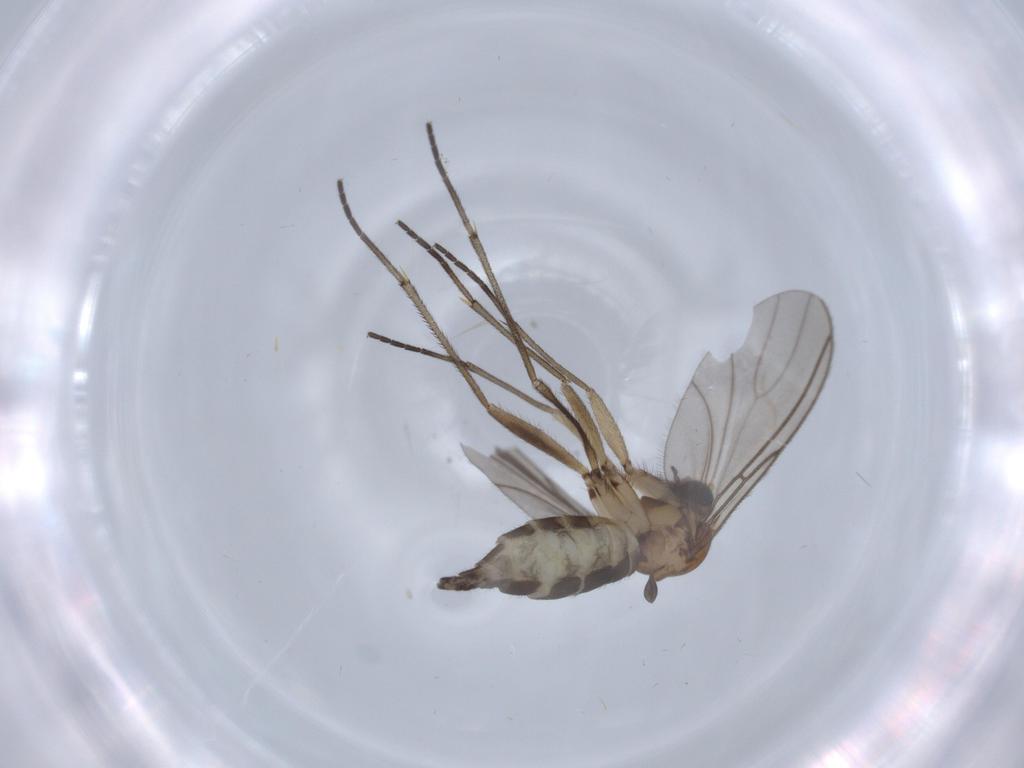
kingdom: Animalia
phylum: Arthropoda
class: Insecta
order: Diptera
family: Sciaridae
